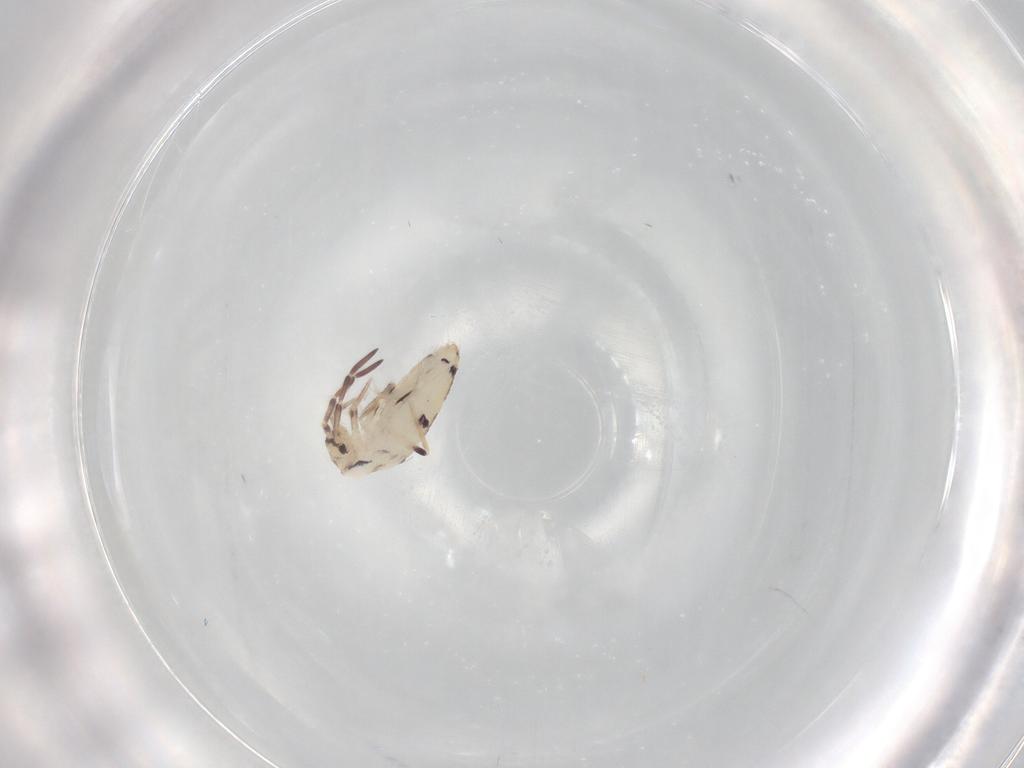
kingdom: Animalia
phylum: Arthropoda
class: Collembola
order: Entomobryomorpha
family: Entomobryidae
